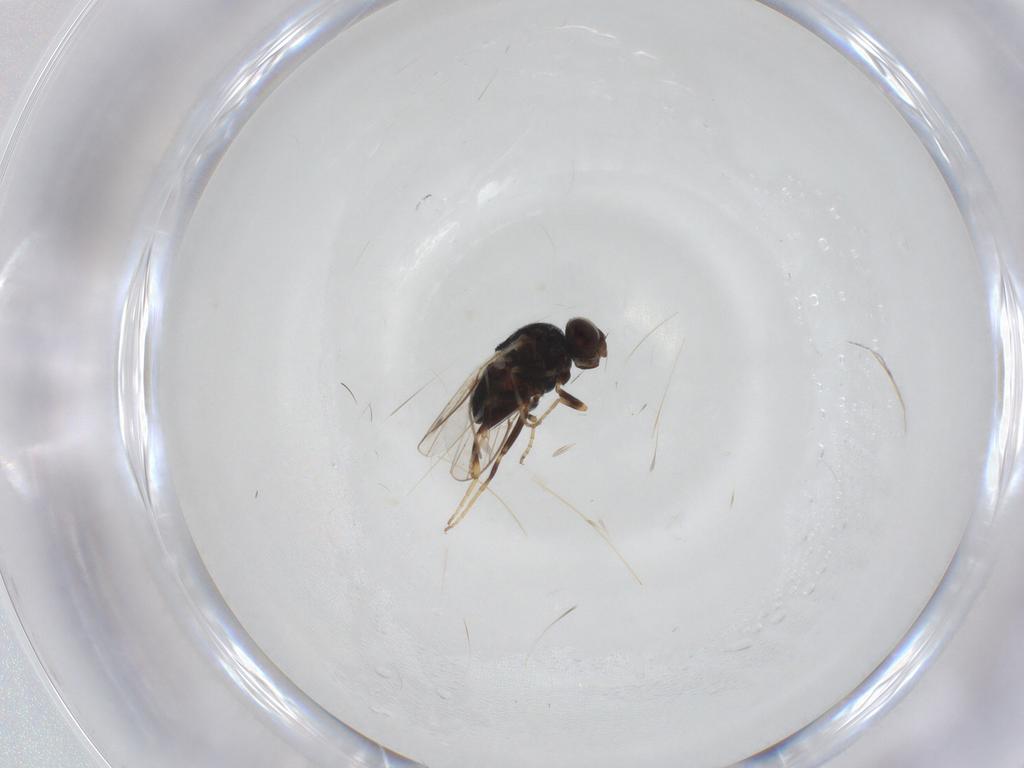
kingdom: Animalia
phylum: Arthropoda
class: Insecta
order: Diptera
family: Chloropidae
